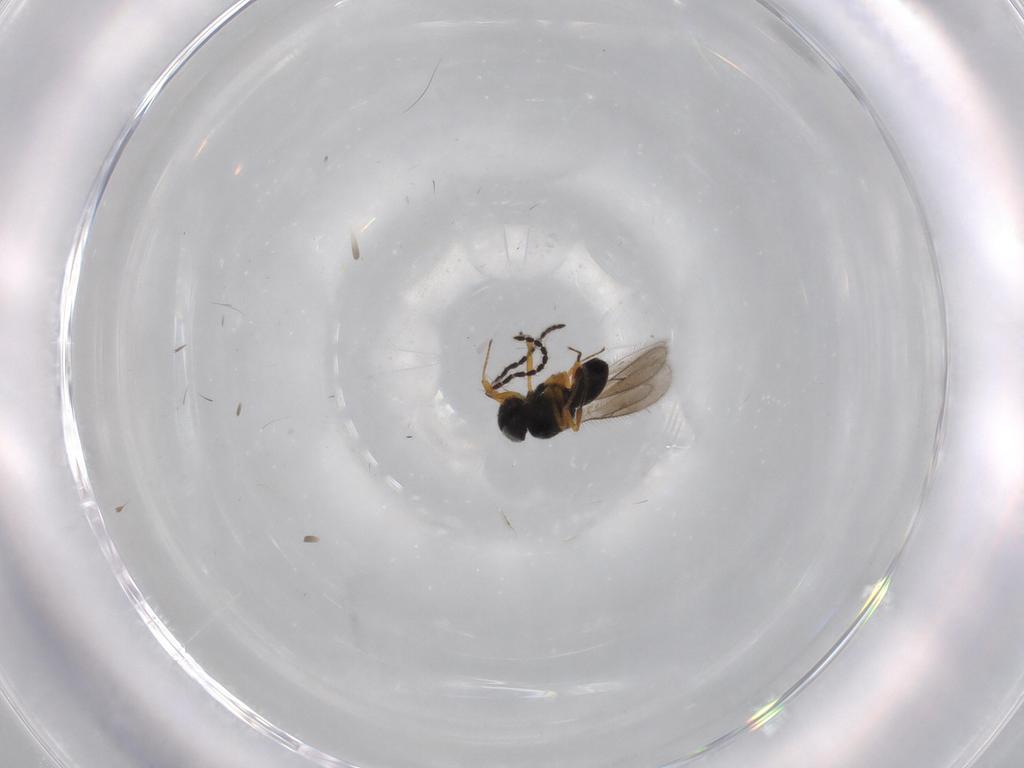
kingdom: Animalia
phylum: Arthropoda
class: Insecta
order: Hymenoptera
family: Scelionidae
